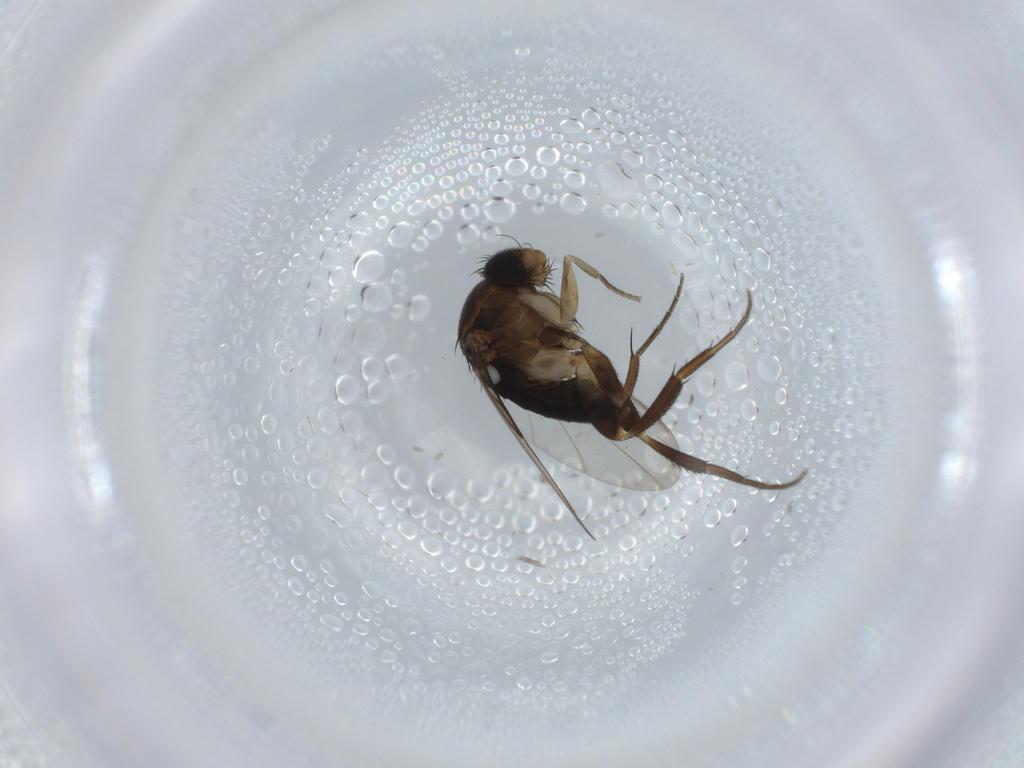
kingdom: Animalia
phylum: Arthropoda
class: Insecta
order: Diptera
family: Phoridae
